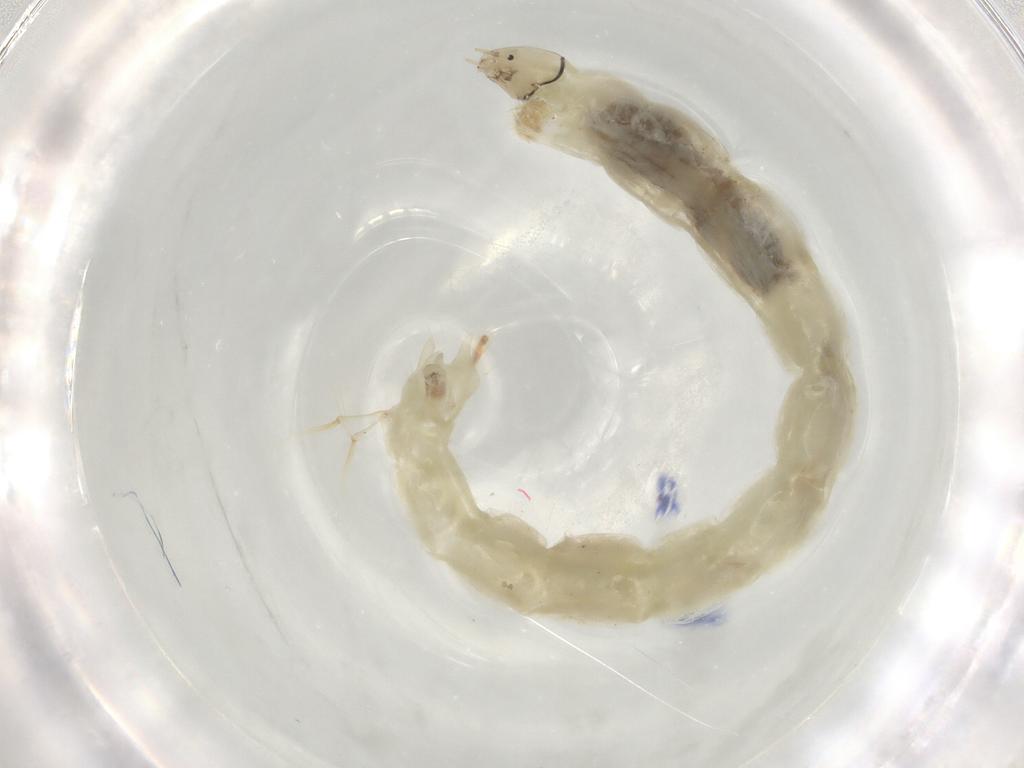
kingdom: Animalia
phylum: Arthropoda
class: Insecta
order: Diptera
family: Chironomidae
